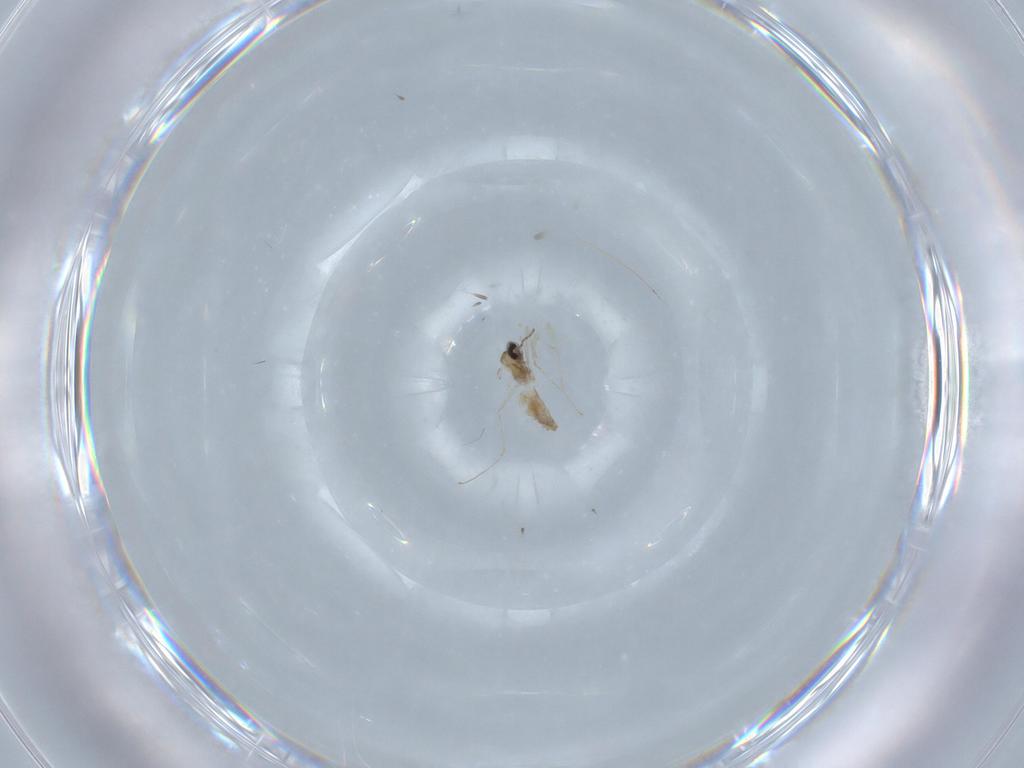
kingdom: Animalia
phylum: Arthropoda
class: Insecta
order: Diptera
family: Cecidomyiidae
